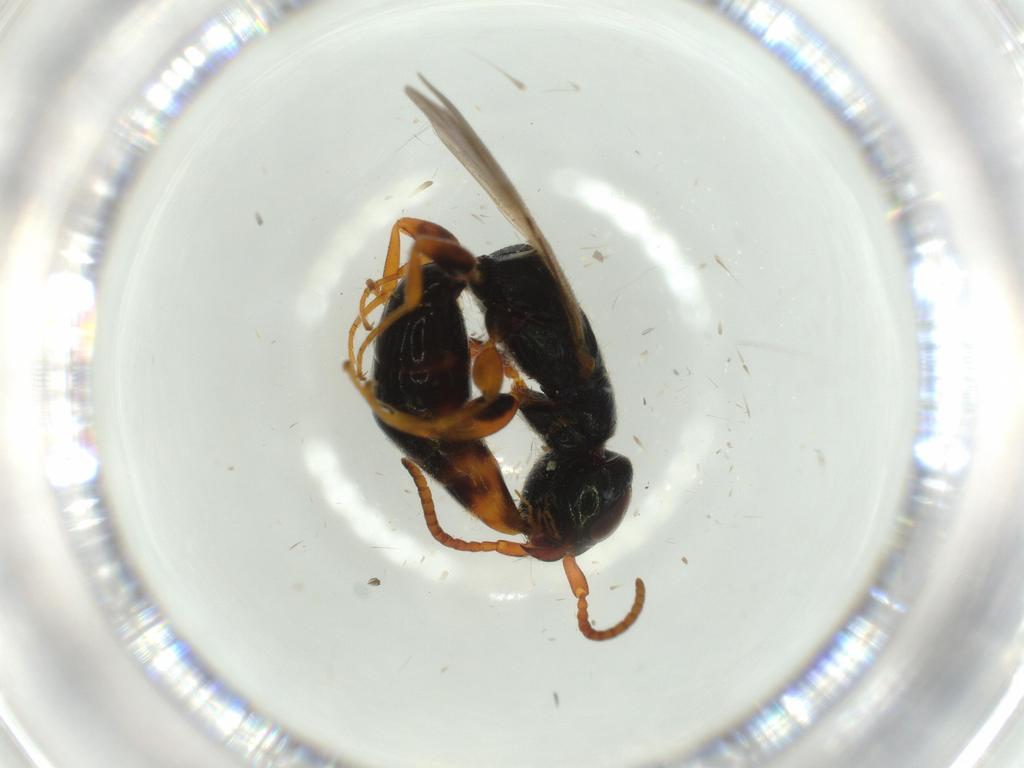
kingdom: Animalia
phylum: Arthropoda
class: Insecta
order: Hymenoptera
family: Bethylidae
